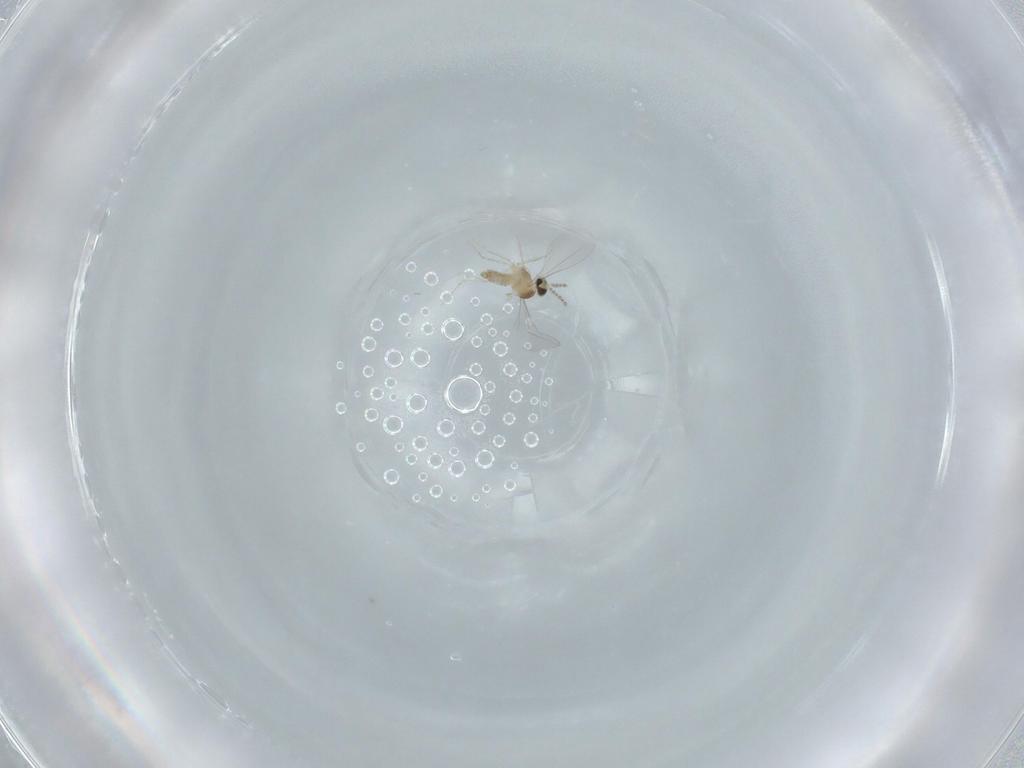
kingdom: Animalia
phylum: Arthropoda
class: Insecta
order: Diptera
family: Cecidomyiidae
